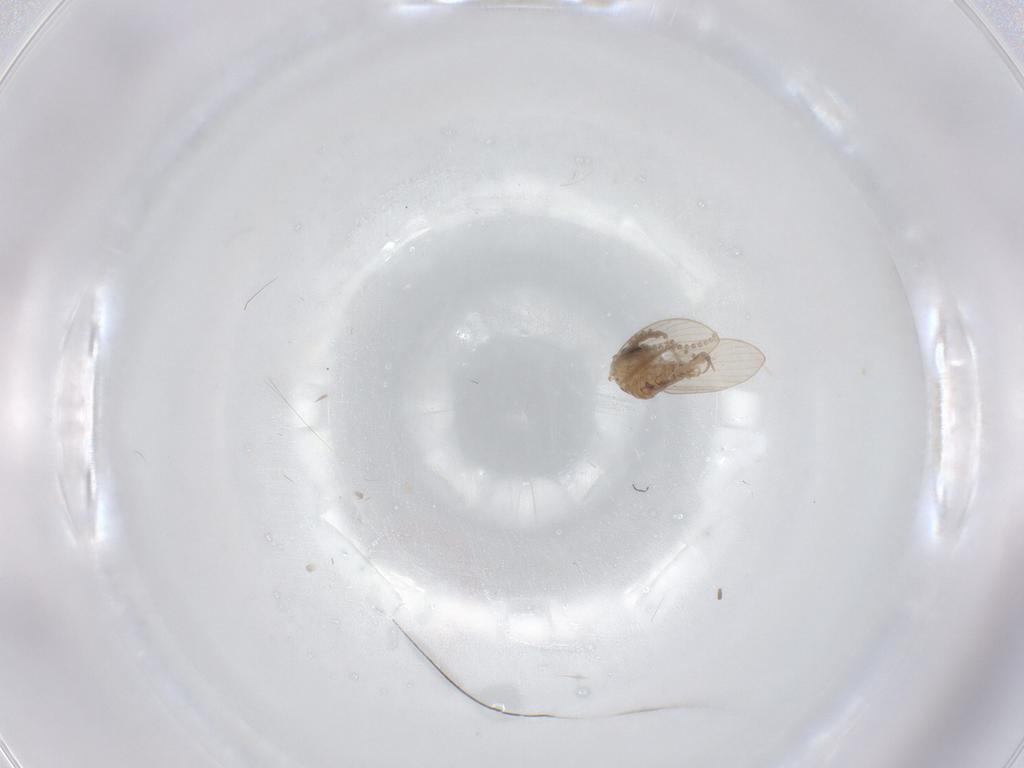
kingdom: Animalia
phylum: Arthropoda
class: Insecta
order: Diptera
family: Psychodidae
